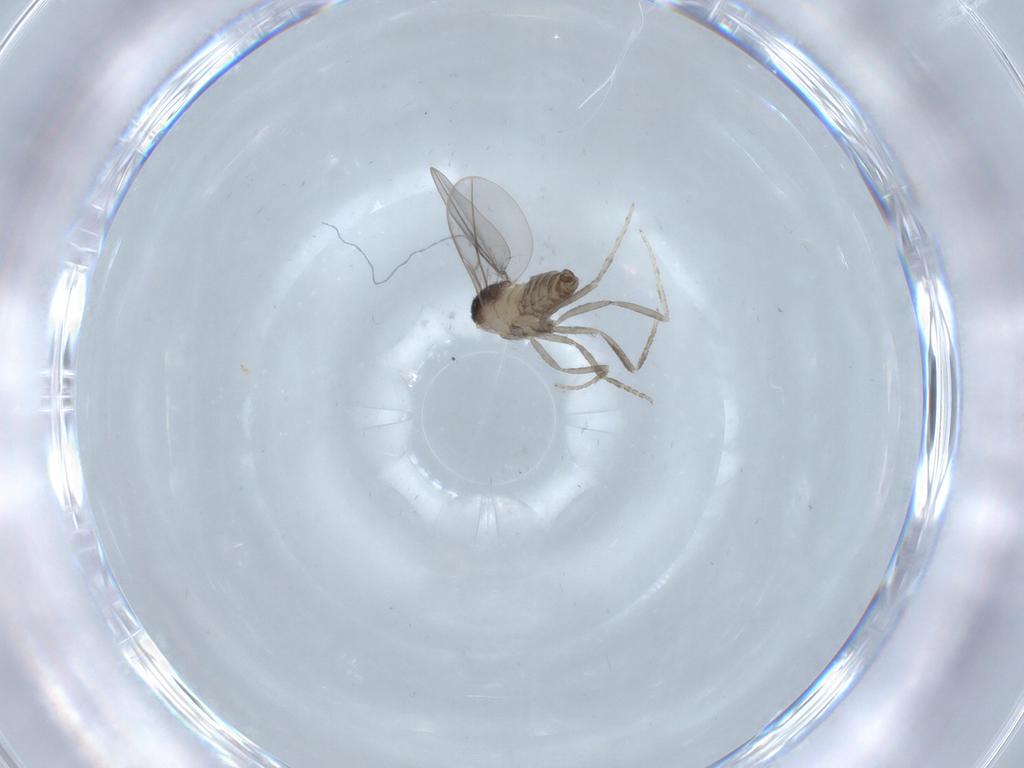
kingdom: Animalia
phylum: Arthropoda
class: Insecta
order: Diptera
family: Cecidomyiidae
